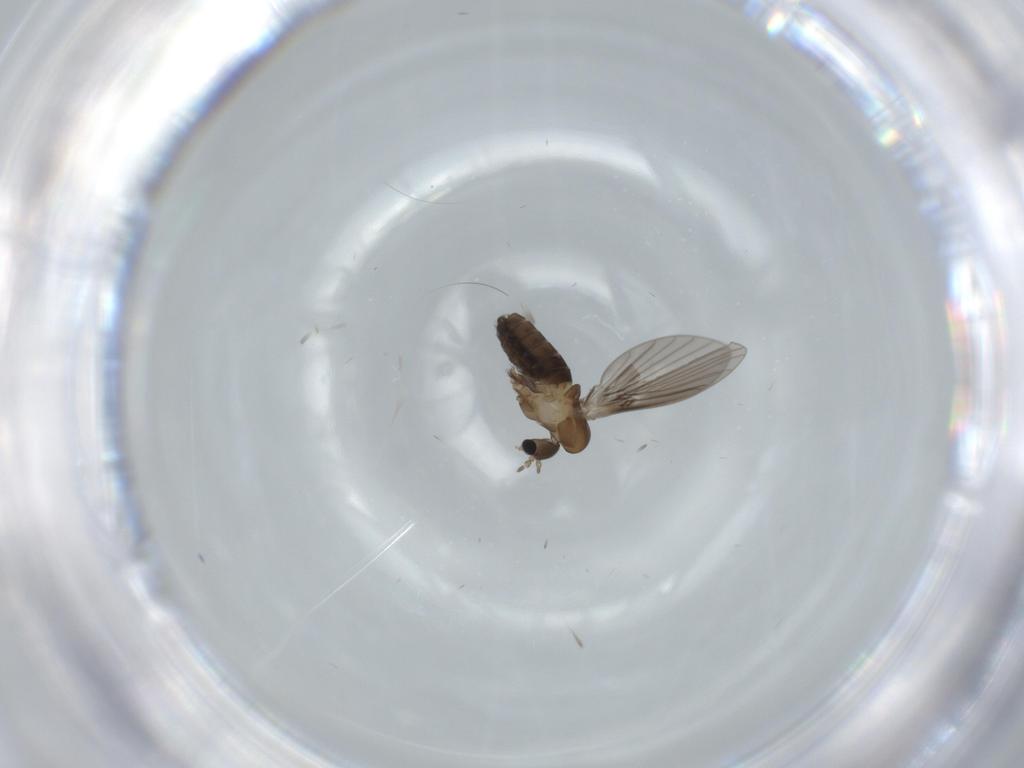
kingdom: Animalia
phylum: Arthropoda
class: Insecta
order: Diptera
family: Psychodidae
